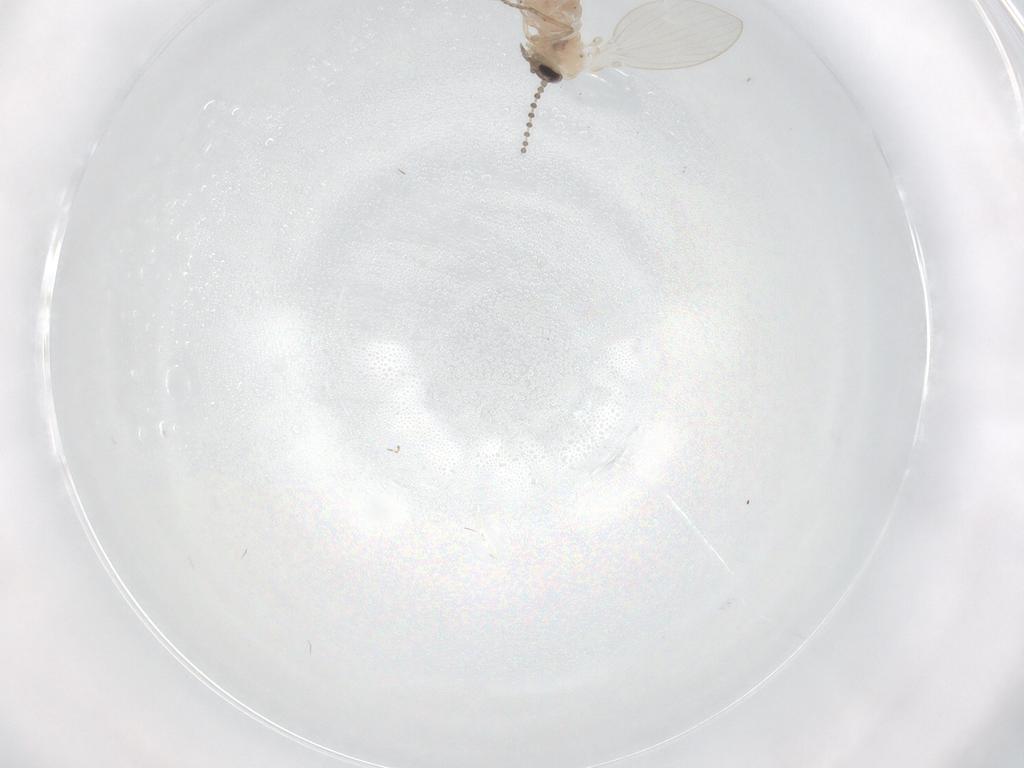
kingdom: Animalia
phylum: Arthropoda
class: Insecta
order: Diptera
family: Psychodidae
